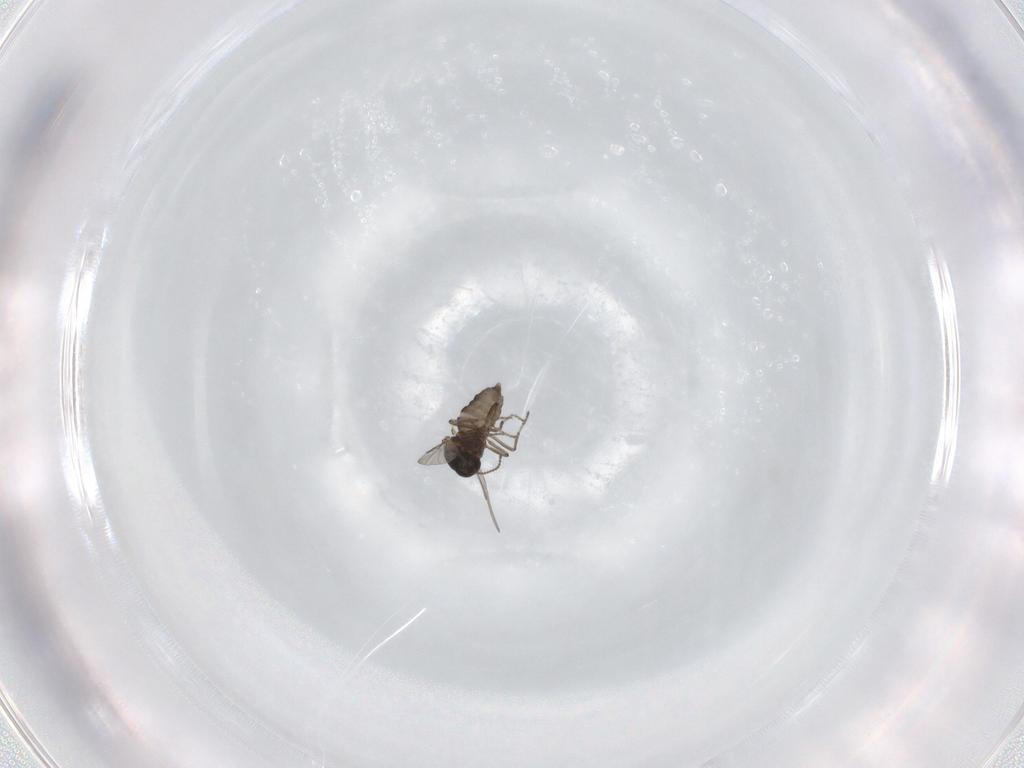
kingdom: Animalia
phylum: Arthropoda
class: Insecta
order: Diptera
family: Ceratopogonidae
